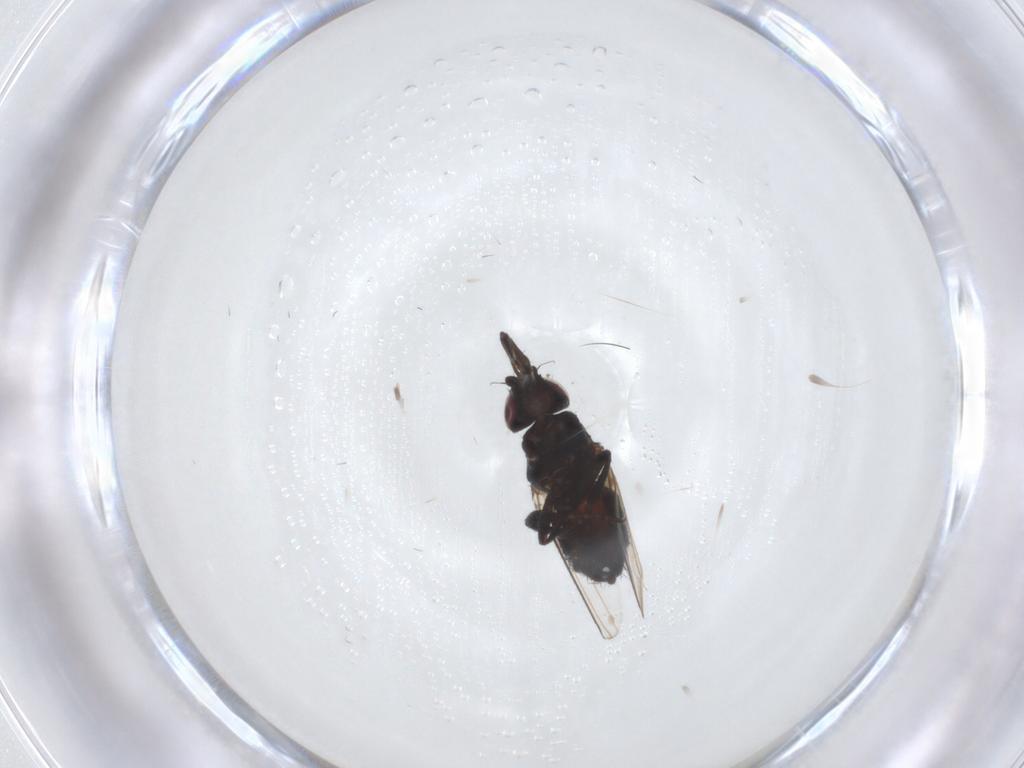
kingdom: Animalia
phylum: Arthropoda
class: Insecta
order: Diptera
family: Milichiidae
